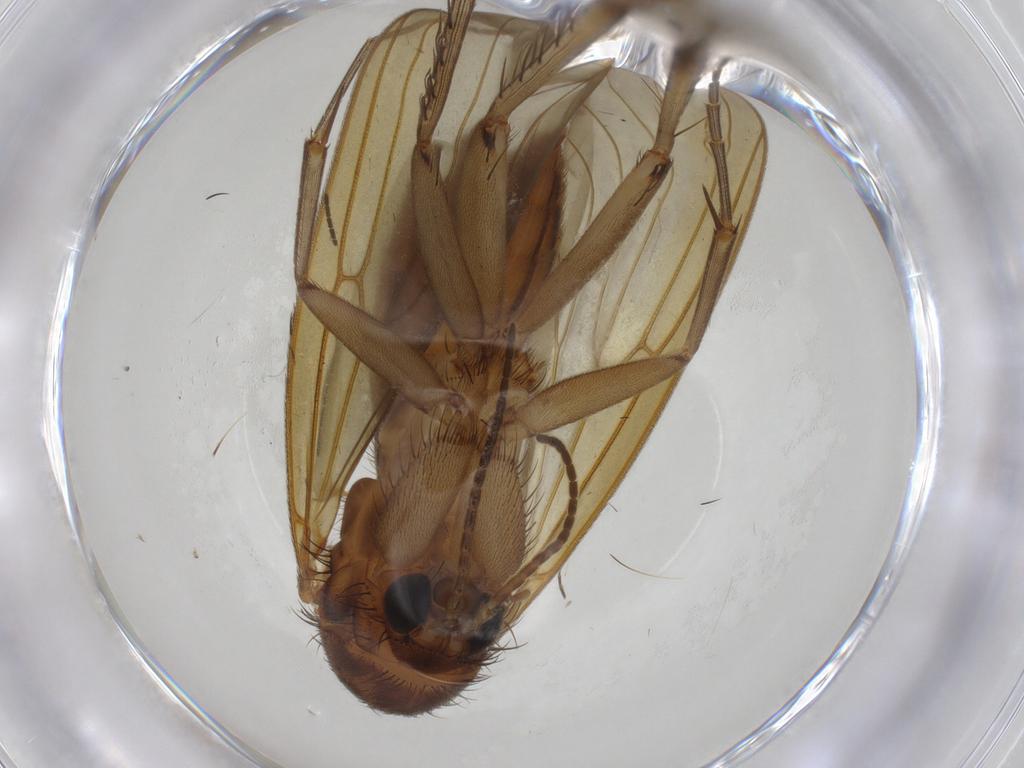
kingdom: Animalia
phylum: Arthropoda
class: Insecta
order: Diptera
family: Mycetophilidae
